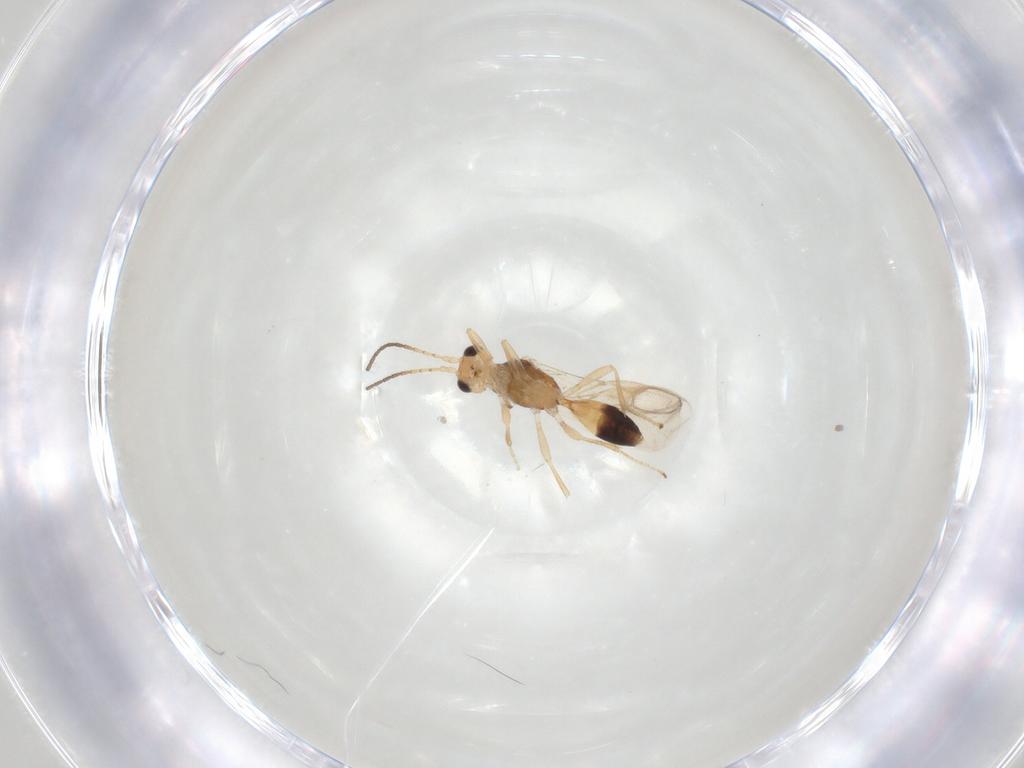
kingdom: Animalia
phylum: Arthropoda
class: Insecta
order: Hymenoptera
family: Braconidae
